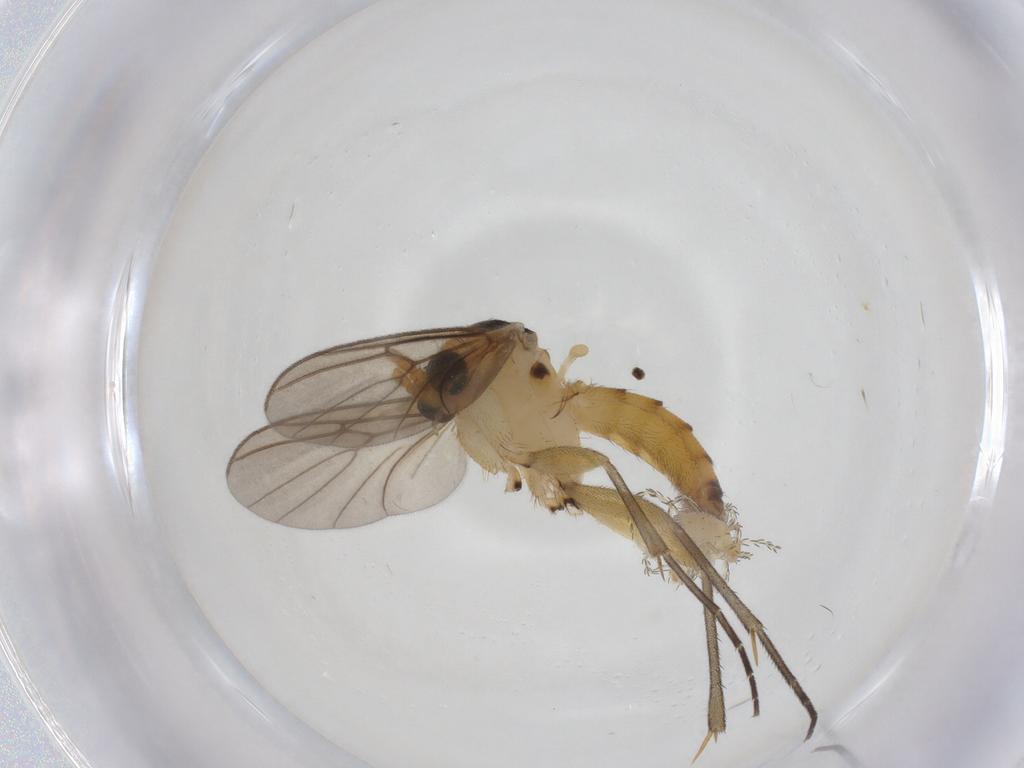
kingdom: Animalia
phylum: Arthropoda
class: Insecta
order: Diptera
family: Mycetophilidae
